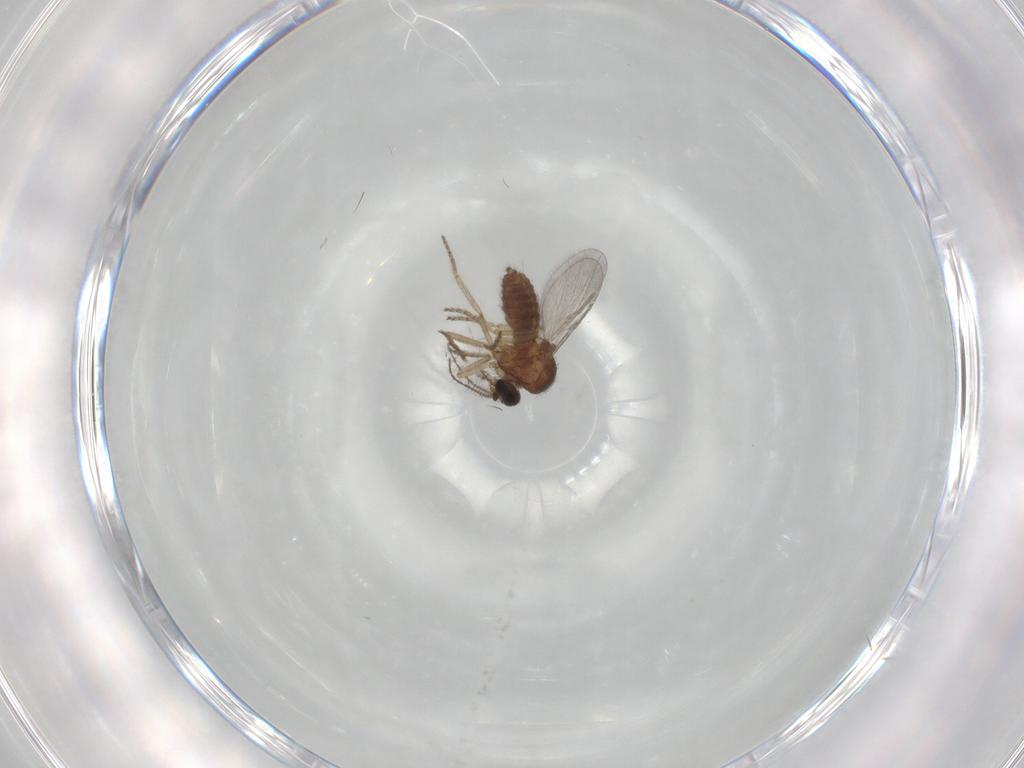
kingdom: Animalia
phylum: Arthropoda
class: Insecta
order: Diptera
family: Ceratopogonidae
